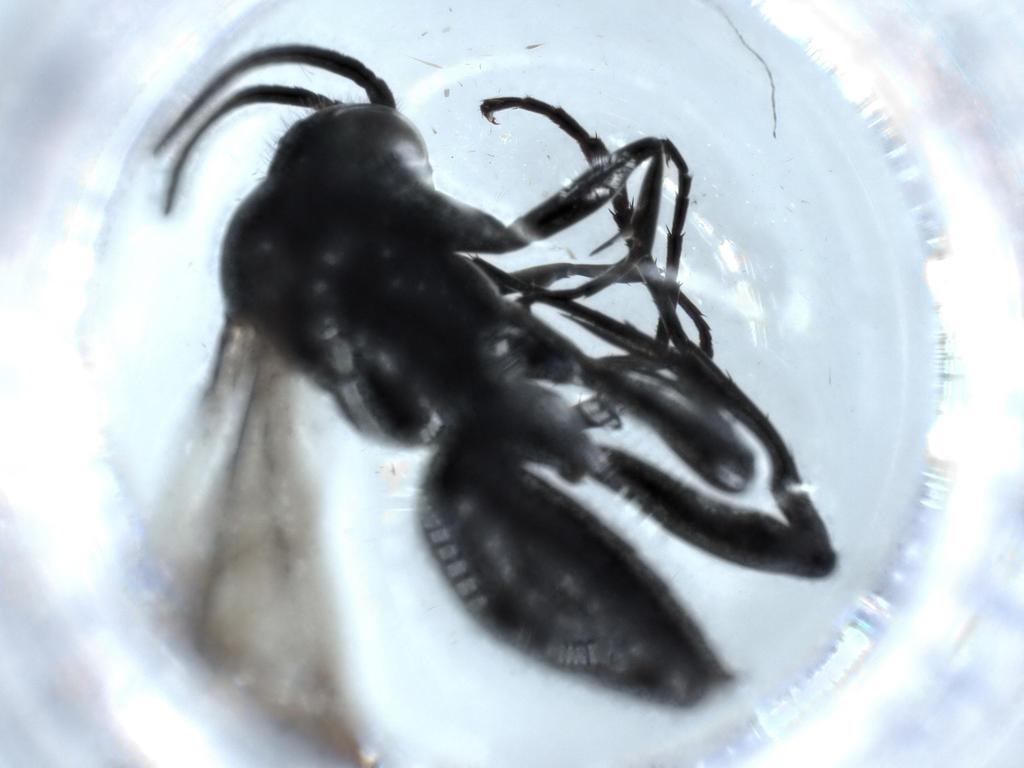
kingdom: Animalia
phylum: Arthropoda
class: Insecta
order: Hymenoptera
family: Pompilidae
